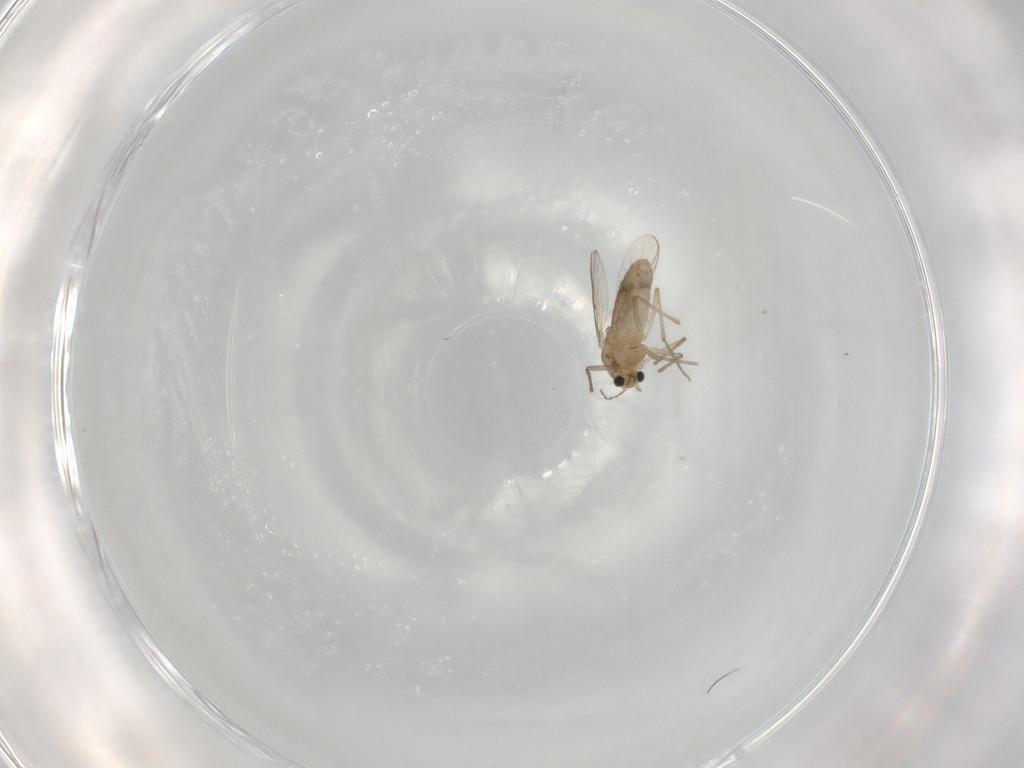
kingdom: Animalia
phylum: Arthropoda
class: Insecta
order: Diptera
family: Chironomidae
